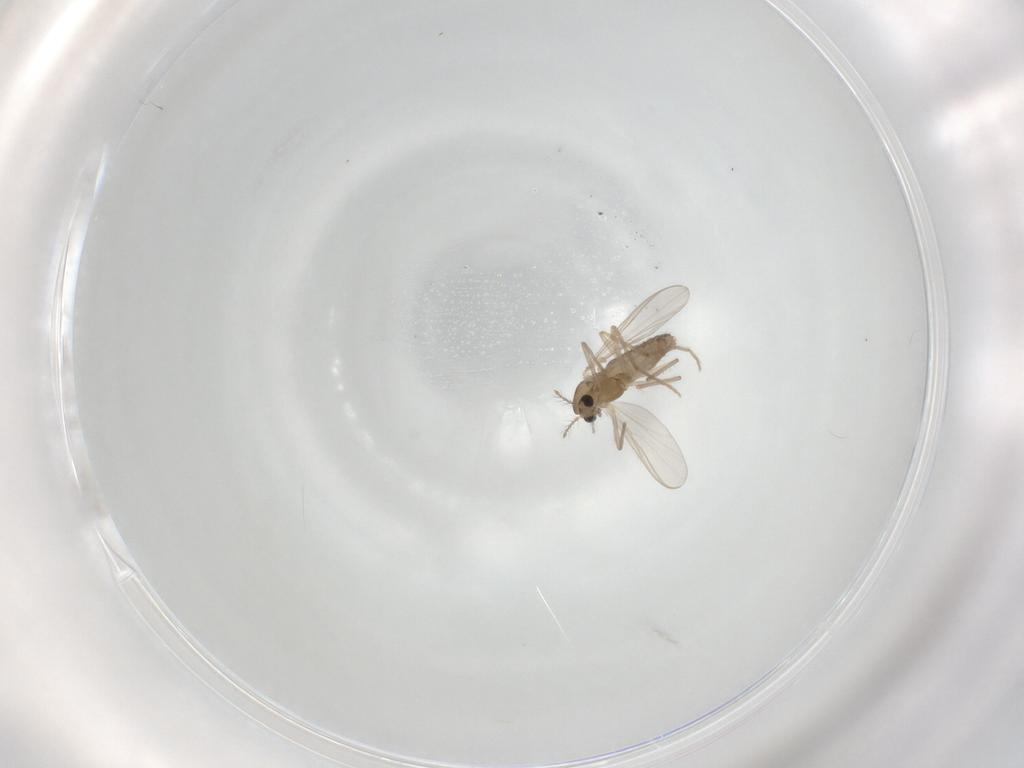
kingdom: Animalia
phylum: Arthropoda
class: Insecta
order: Diptera
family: Chironomidae
